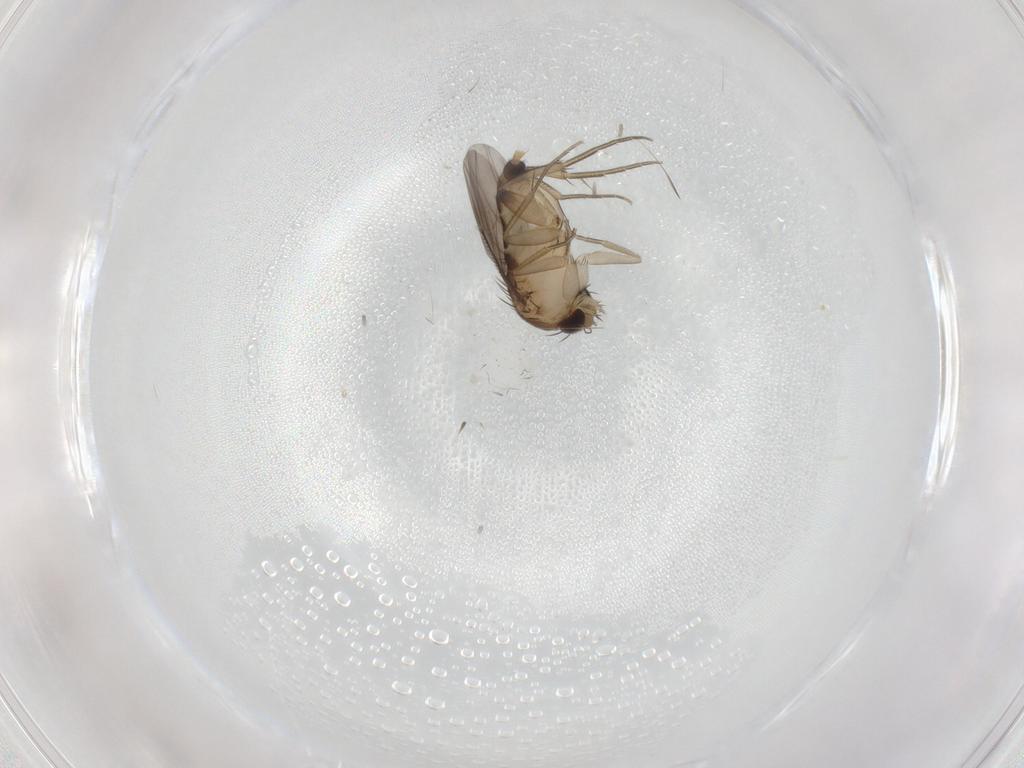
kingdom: Animalia
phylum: Arthropoda
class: Insecta
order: Diptera
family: Phoridae
